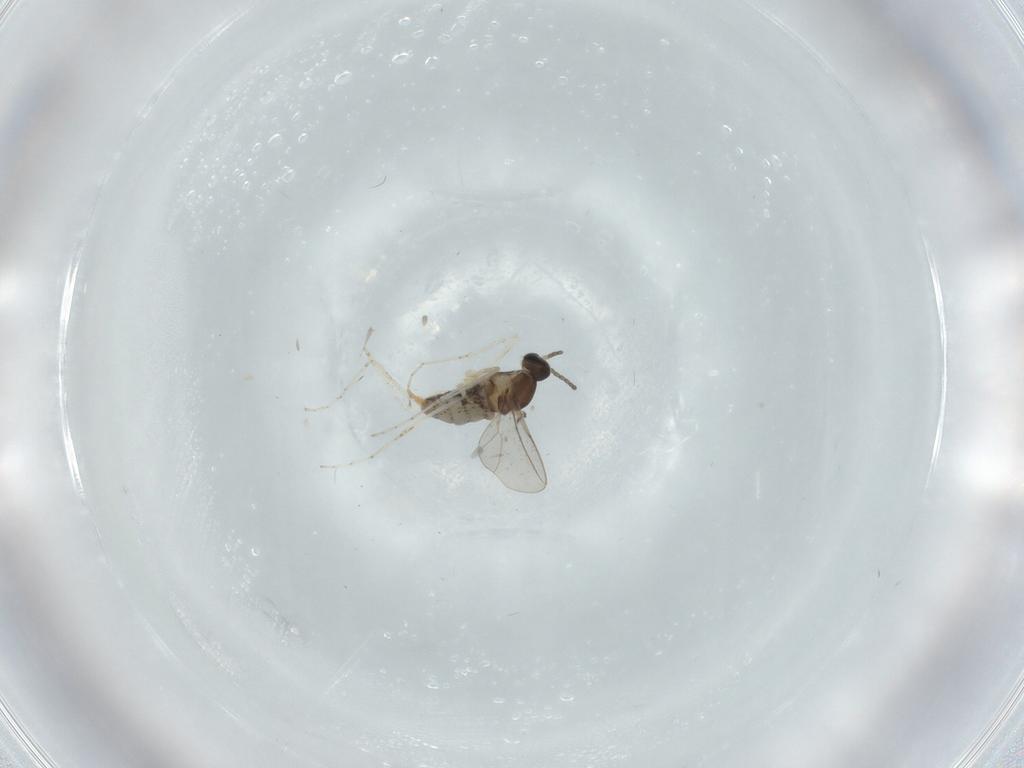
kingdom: Animalia
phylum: Arthropoda
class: Insecta
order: Diptera
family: Cecidomyiidae
